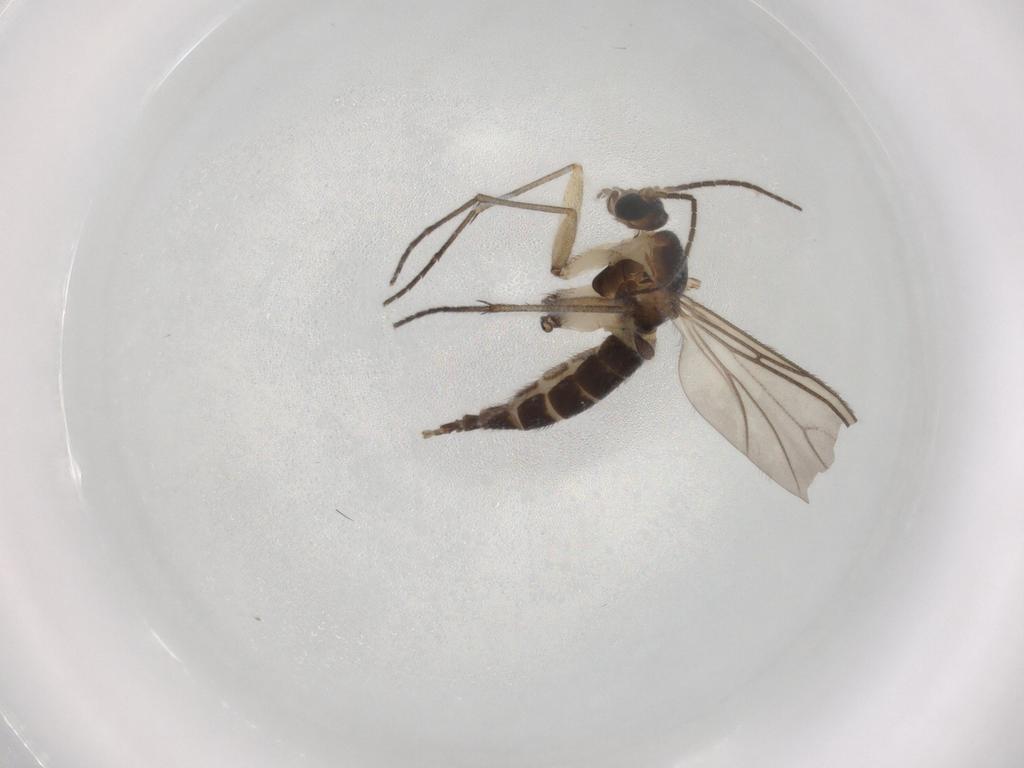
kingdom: Animalia
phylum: Arthropoda
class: Insecta
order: Diptera
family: Sciaridae
